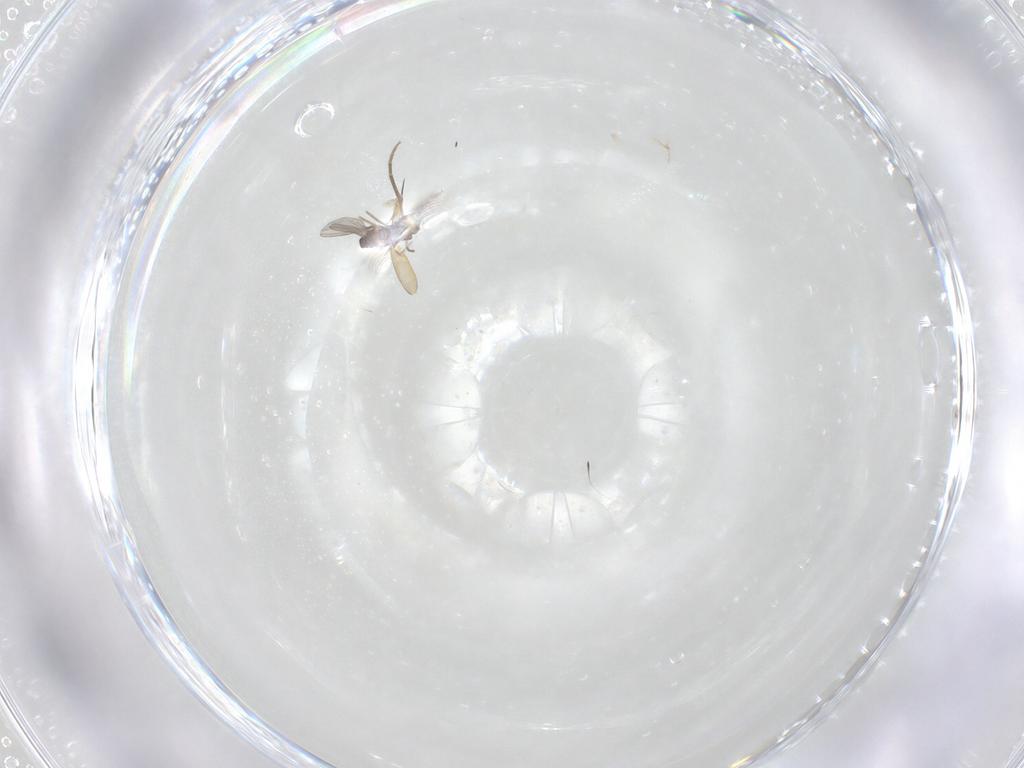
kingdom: Animalia
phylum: Arthropoda
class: Insecta
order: Diptera
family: Phoridae
